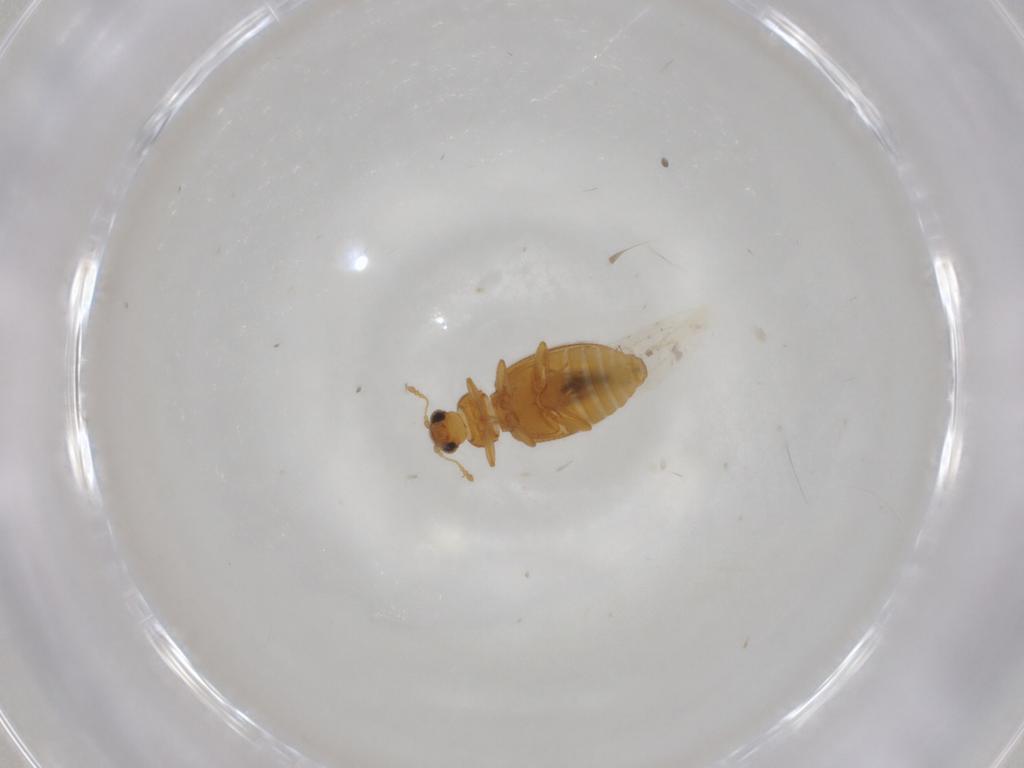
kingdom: Animalia
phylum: Arthropoda
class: Insecta
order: Coleoptera
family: Latridiidae
